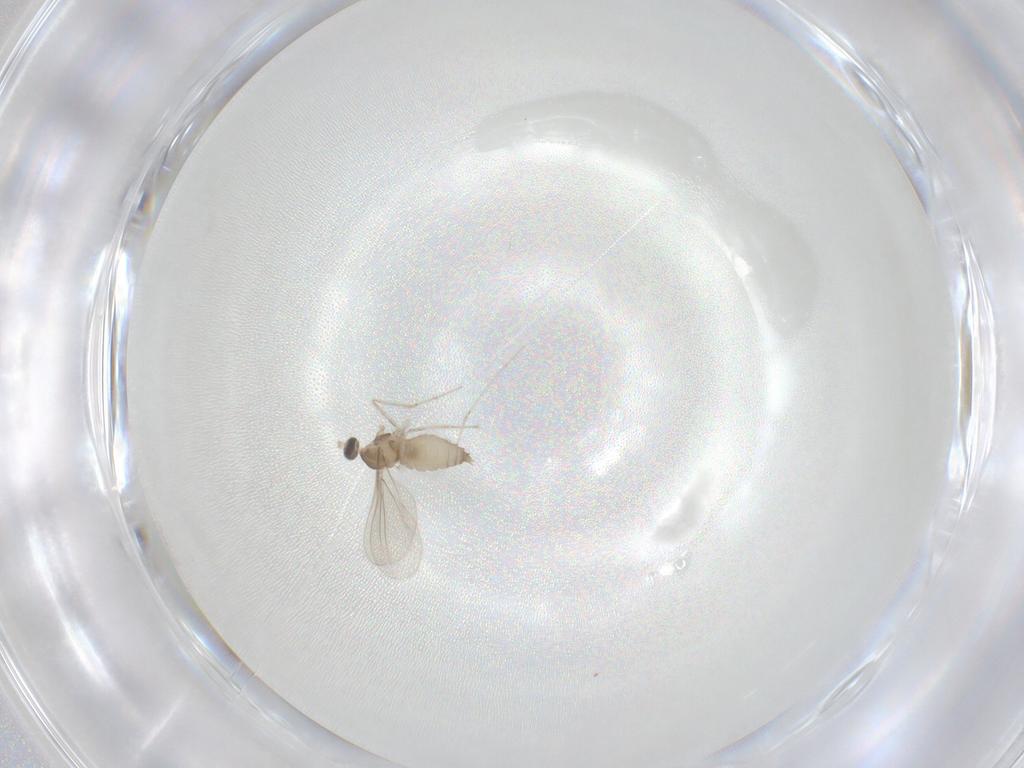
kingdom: Animalia
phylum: Arthropoda
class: Insecta
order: Diptera
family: Cecidomyiidae
